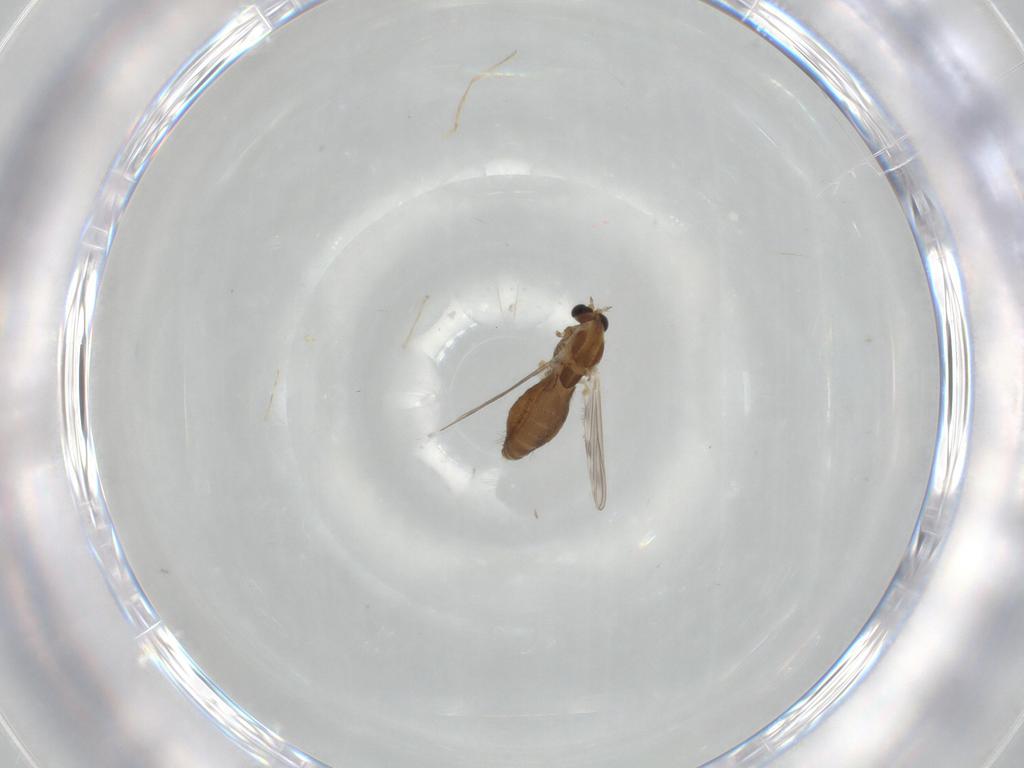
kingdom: Animalia
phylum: Arthropoda
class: Insecta
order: Diptera
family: Chironomidae
